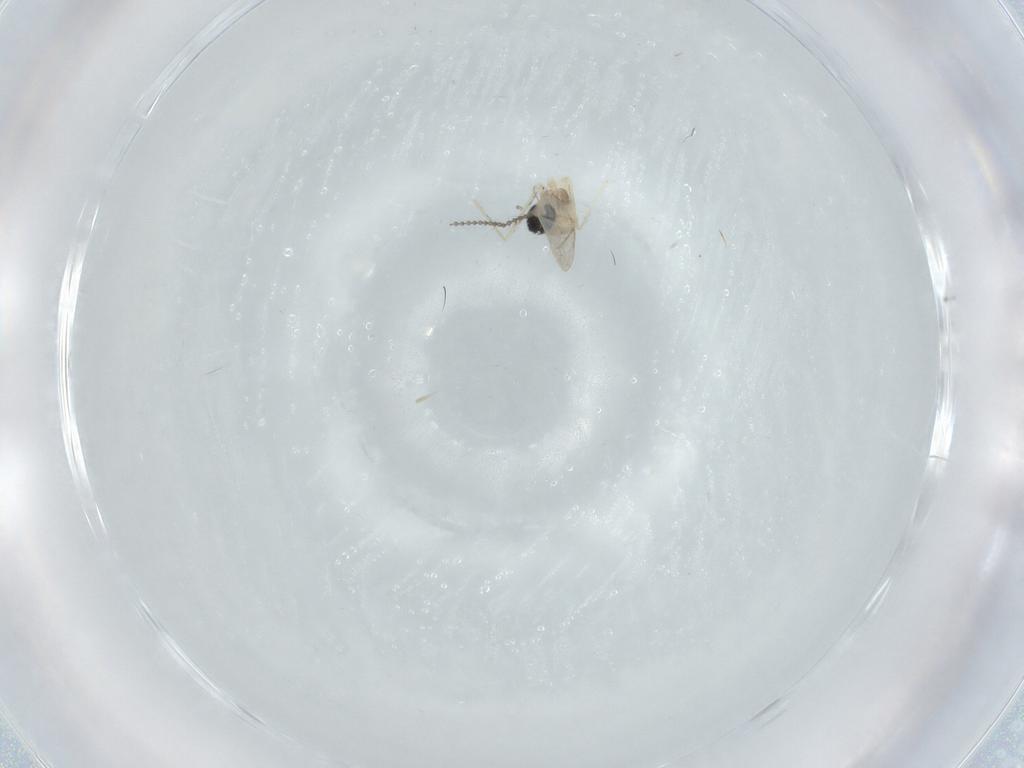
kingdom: Animalia
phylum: Arthropoda
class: Insecta
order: Diptera
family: Cecidomyiidae
